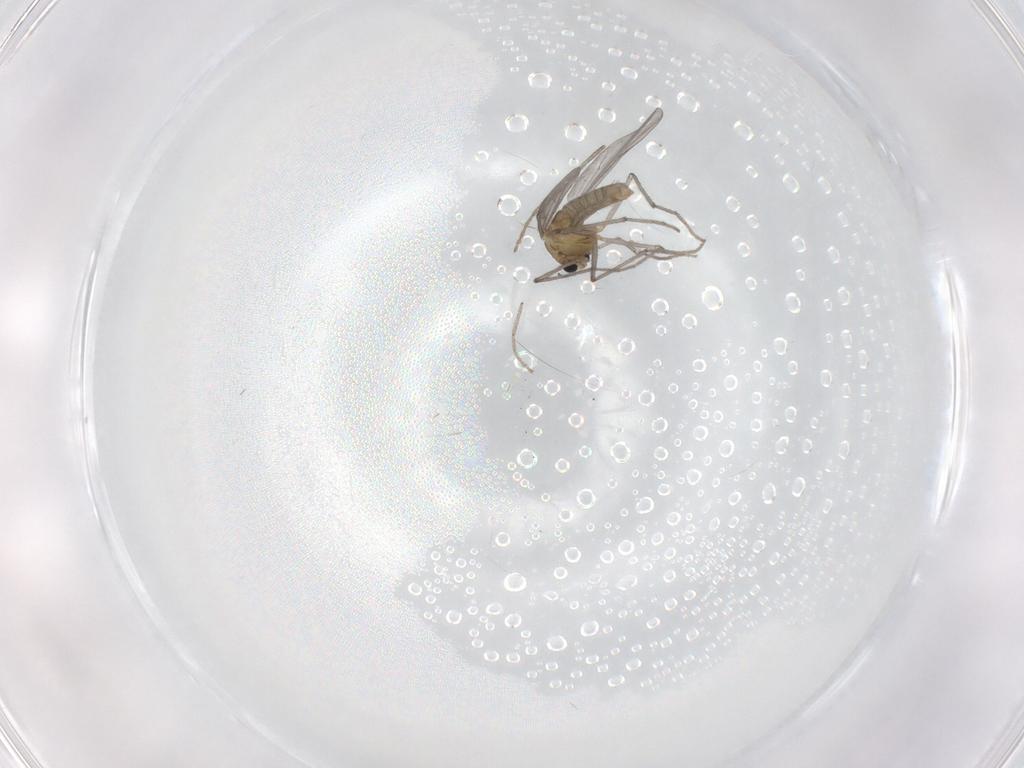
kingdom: Animalia
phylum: Arthropoda
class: Insecta
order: Diptera
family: Chironomidae
